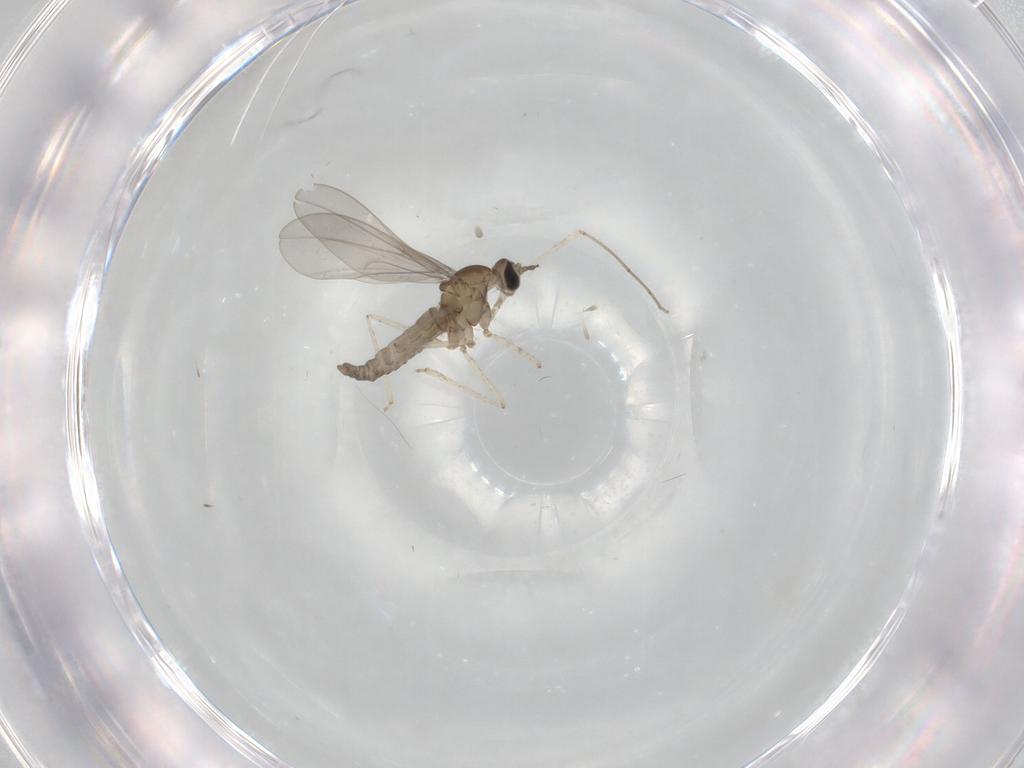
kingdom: Animalia
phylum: Arthropoda
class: Insecta
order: Diptera
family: Cecidomyiidae
